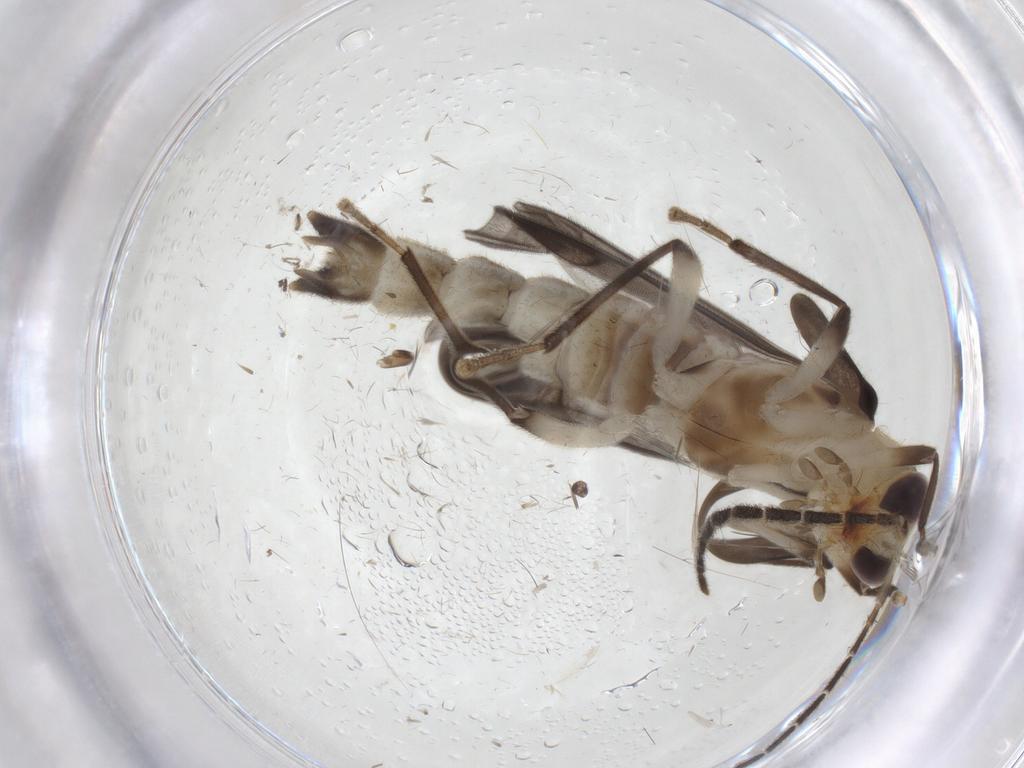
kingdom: Animalia
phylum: Arthropoda
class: Insecta
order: Coleoptera
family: Cantharidae
